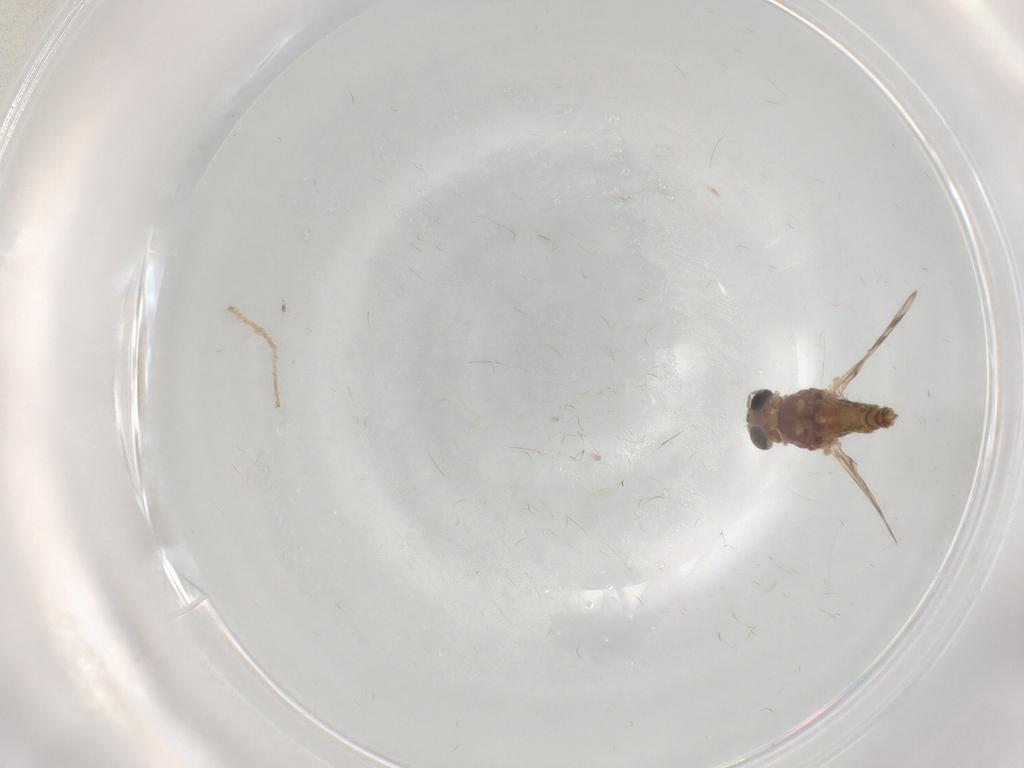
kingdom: Animalia
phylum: Arthropoda
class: Insecta
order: Diptera
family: Chironomidae
